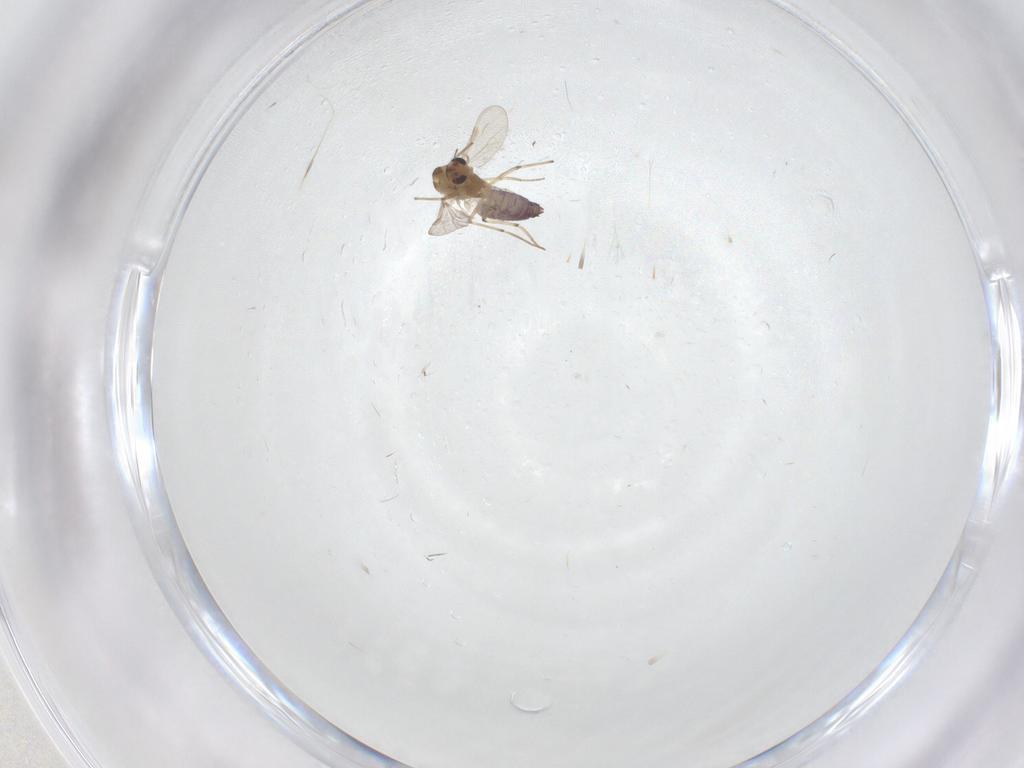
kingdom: Animalia
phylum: Arthropoda
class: Insecta
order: Diptera
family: Chironomidae
